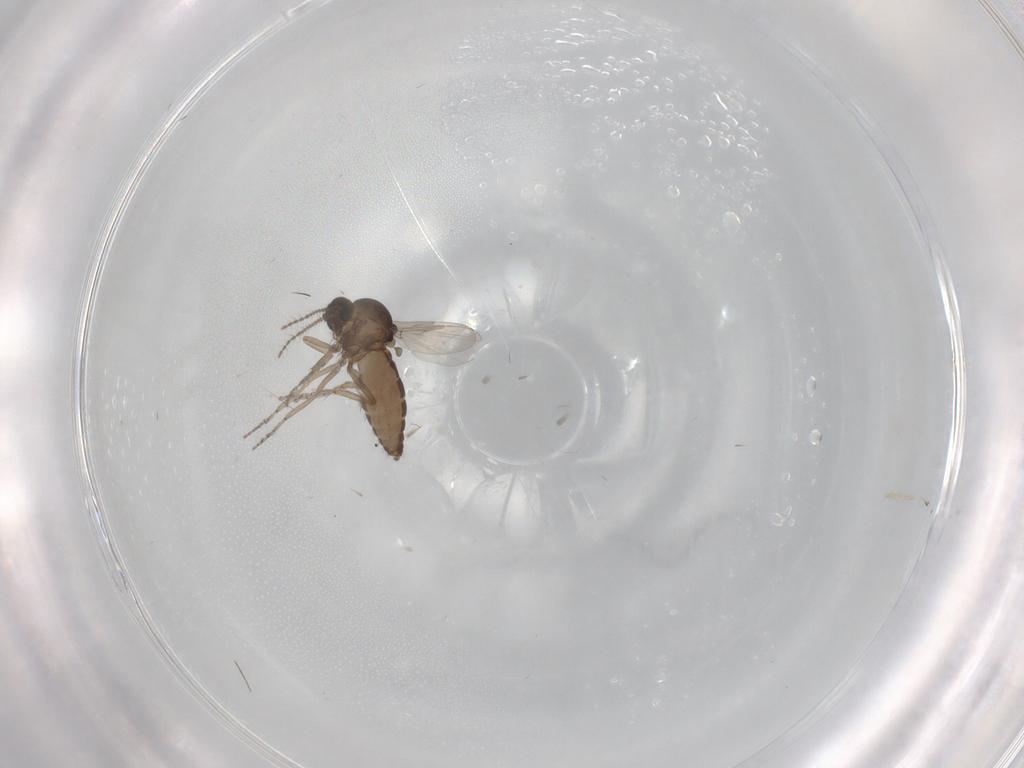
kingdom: Animalia
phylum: Arthropoda
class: Insecta
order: Diptera
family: Ceratopogonidae
